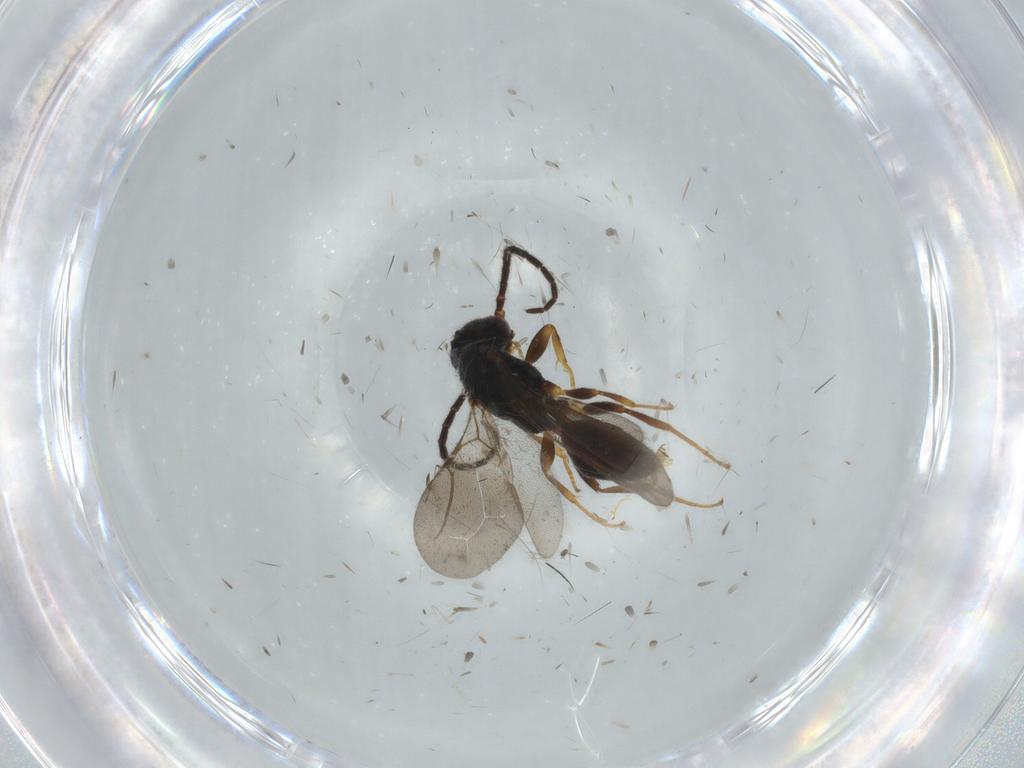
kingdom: Animalia
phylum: Arthropoda
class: Insecta
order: Hymenoptera
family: Bethylidae
